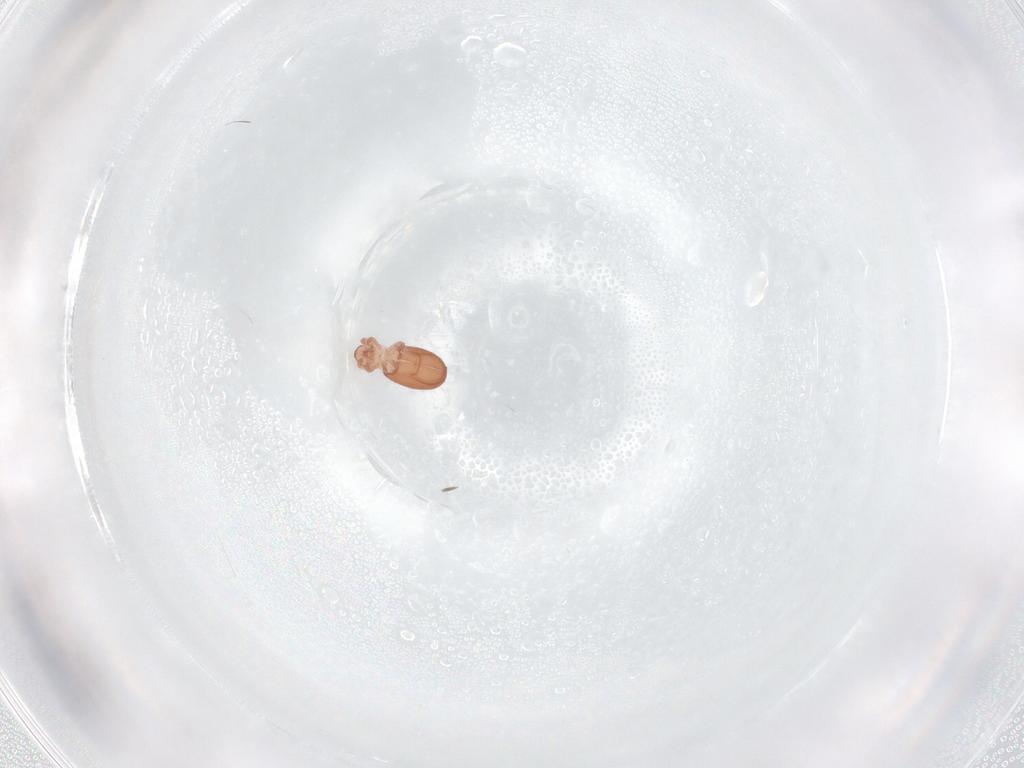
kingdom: Animalia
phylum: Arthropoda
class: Arachnida
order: Sarcoptiformes
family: Phthiracaridae
